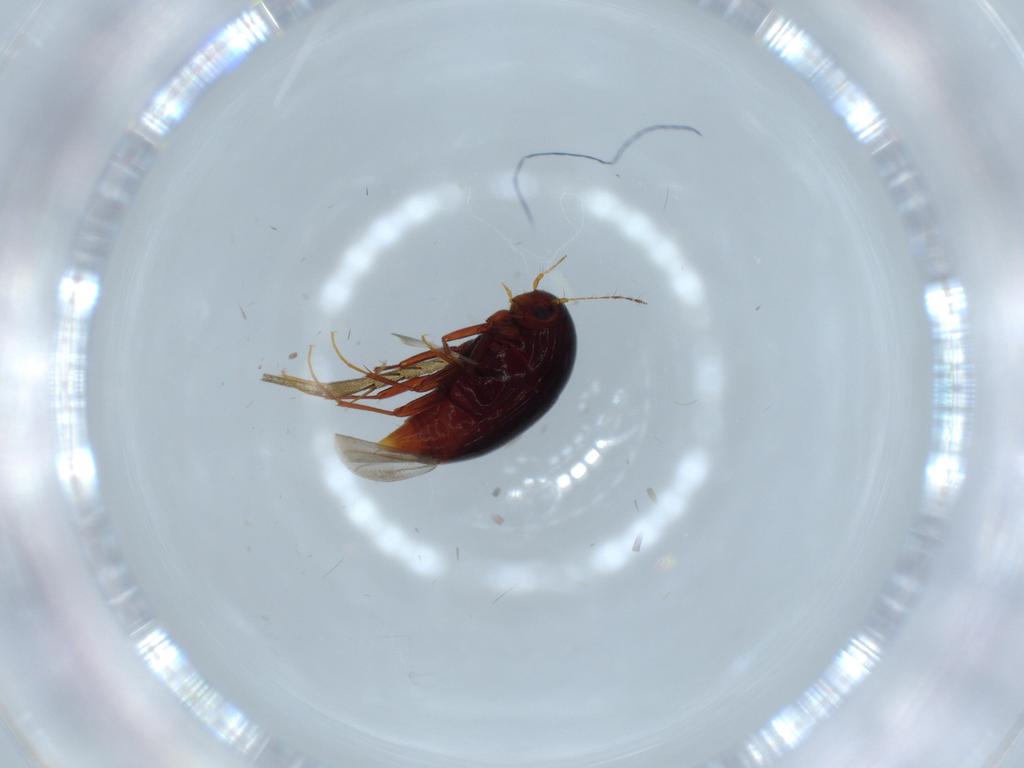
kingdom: Animalia
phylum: Arthropoda
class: Insecta
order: Coleoptera
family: Staphylinidae
